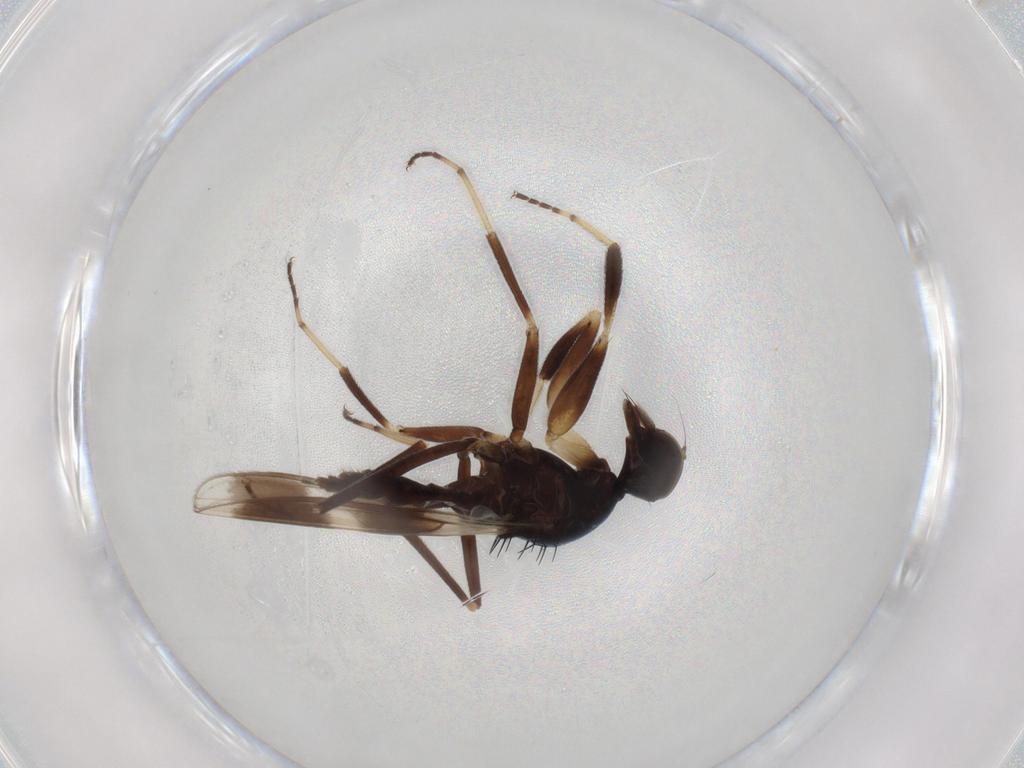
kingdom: Animalia
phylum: Arthropoda
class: Insecta
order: Diptera
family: Hybotidae
